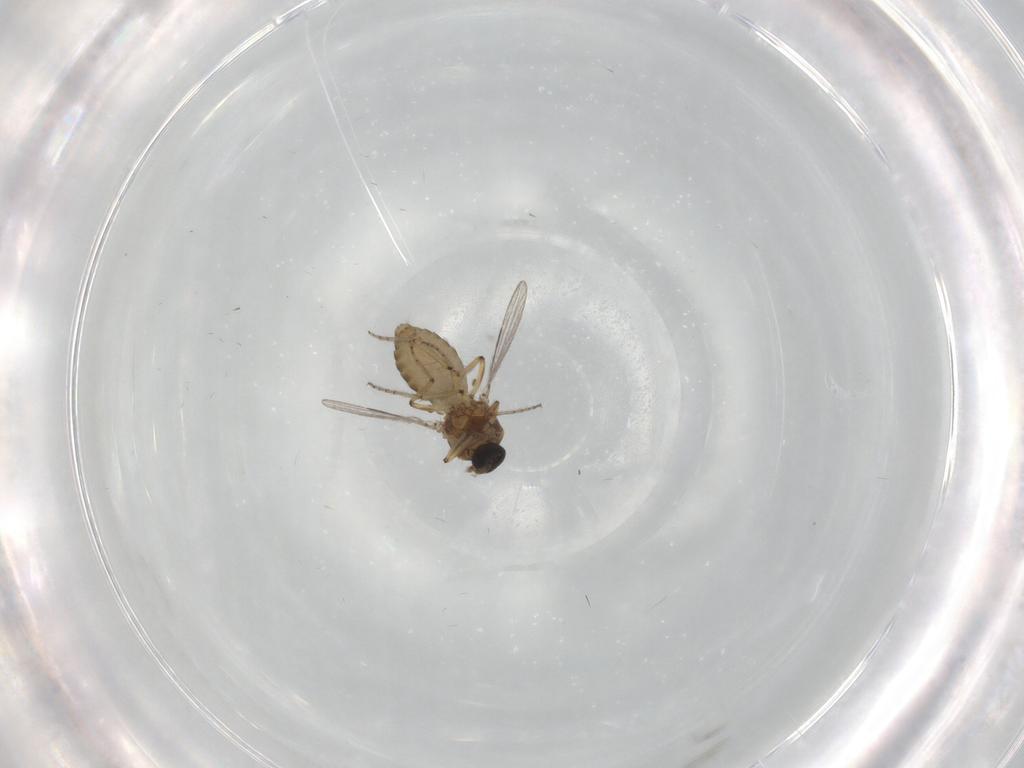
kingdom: Animalia
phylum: Arthropoda
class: Insecta
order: Diptera
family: Ceratopogonidae
